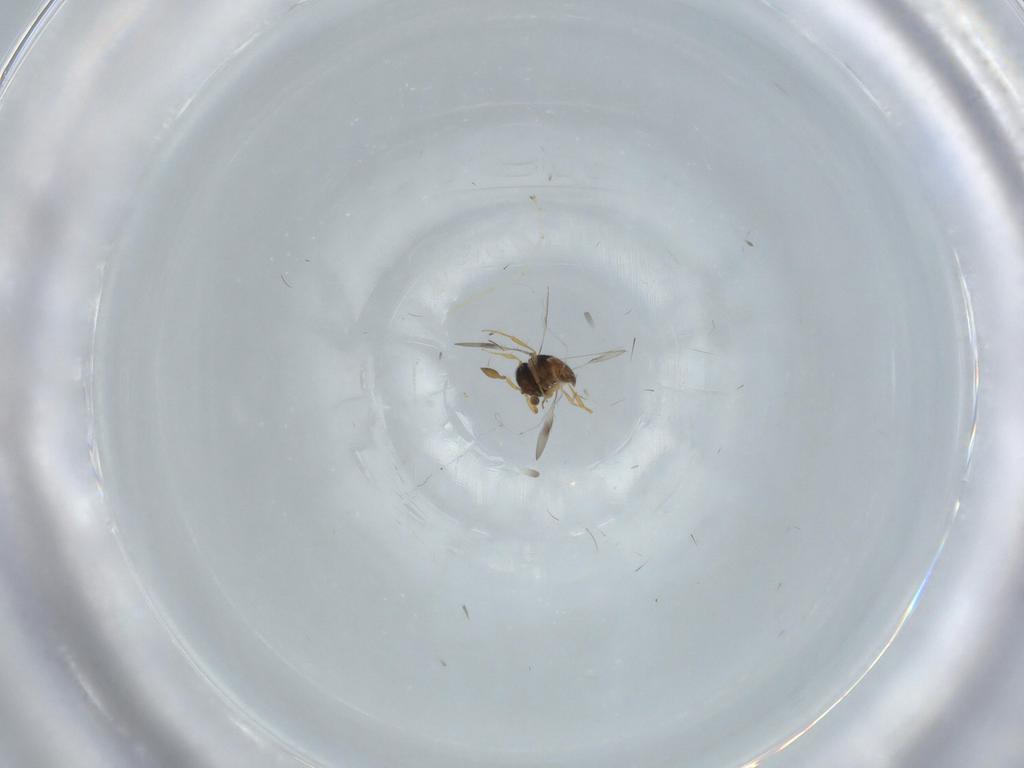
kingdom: Animalia
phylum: Arthropoda
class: Insecta
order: Hymenoptera
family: Scelionidae
